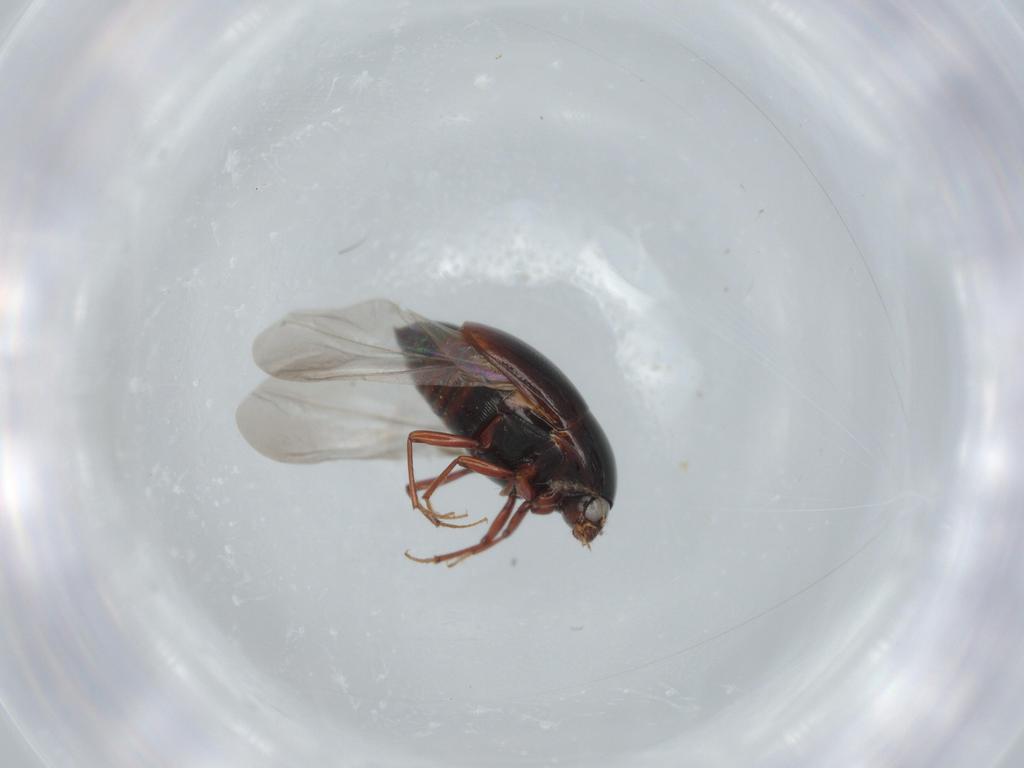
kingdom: Animalia
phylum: Arthropoda
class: Insecta
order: Coleoptera
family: Staphylinidae
